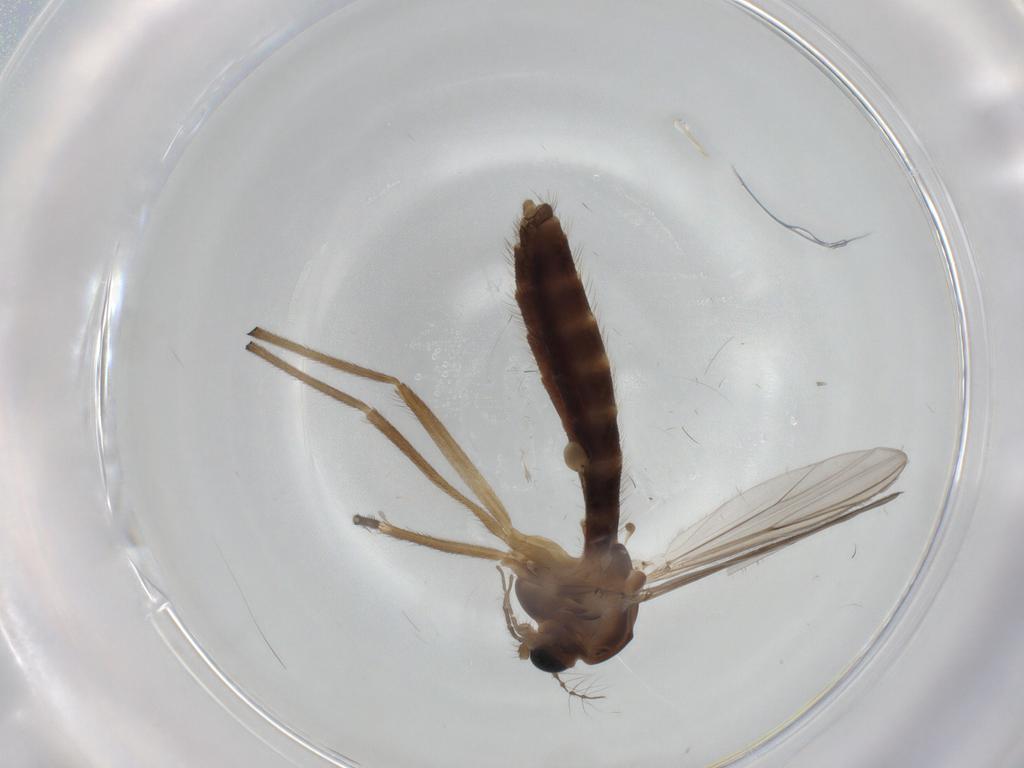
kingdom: Animalia
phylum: Arthropoda
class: Insecta
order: Diptera
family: Chironomidae
